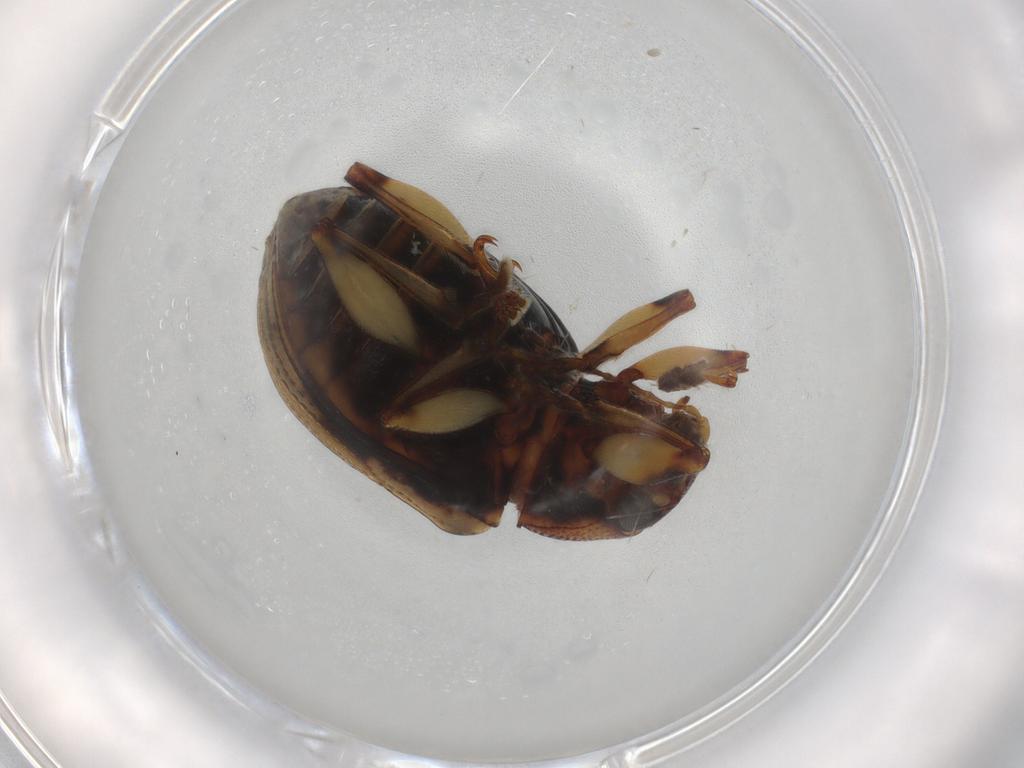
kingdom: Animalia
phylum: Arthropoda
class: Insecta
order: Coleoptera
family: Chrysomelidae
